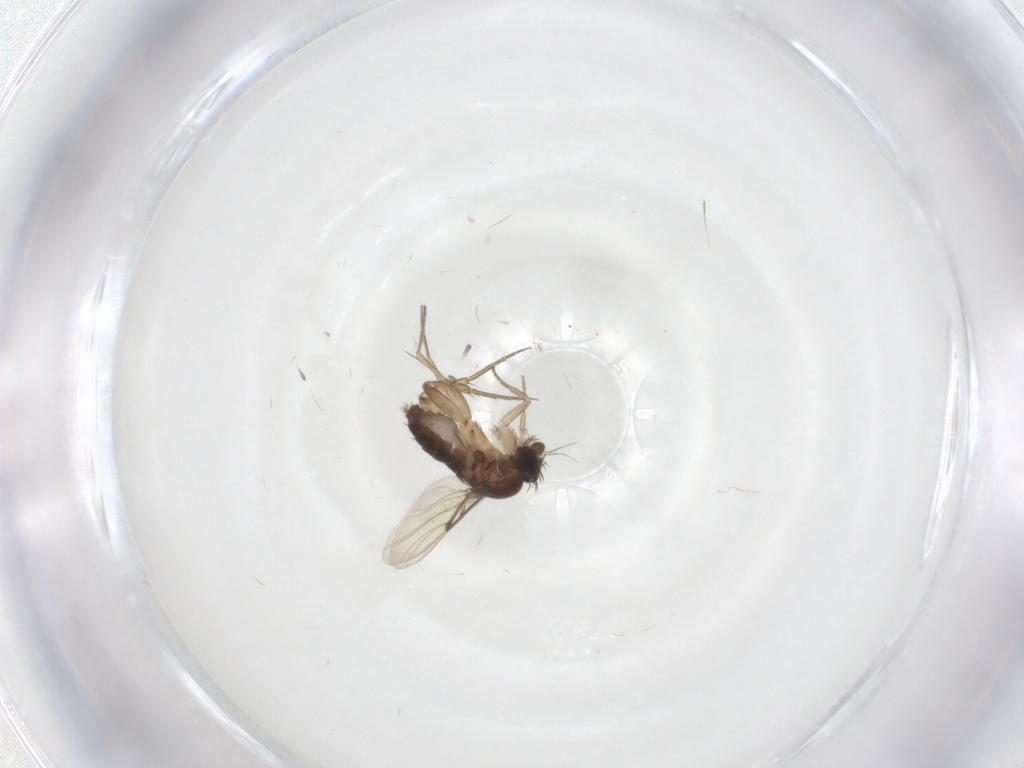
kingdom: Animalia
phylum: Arthropoda
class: Insecta
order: Diptera
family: Phoridae
